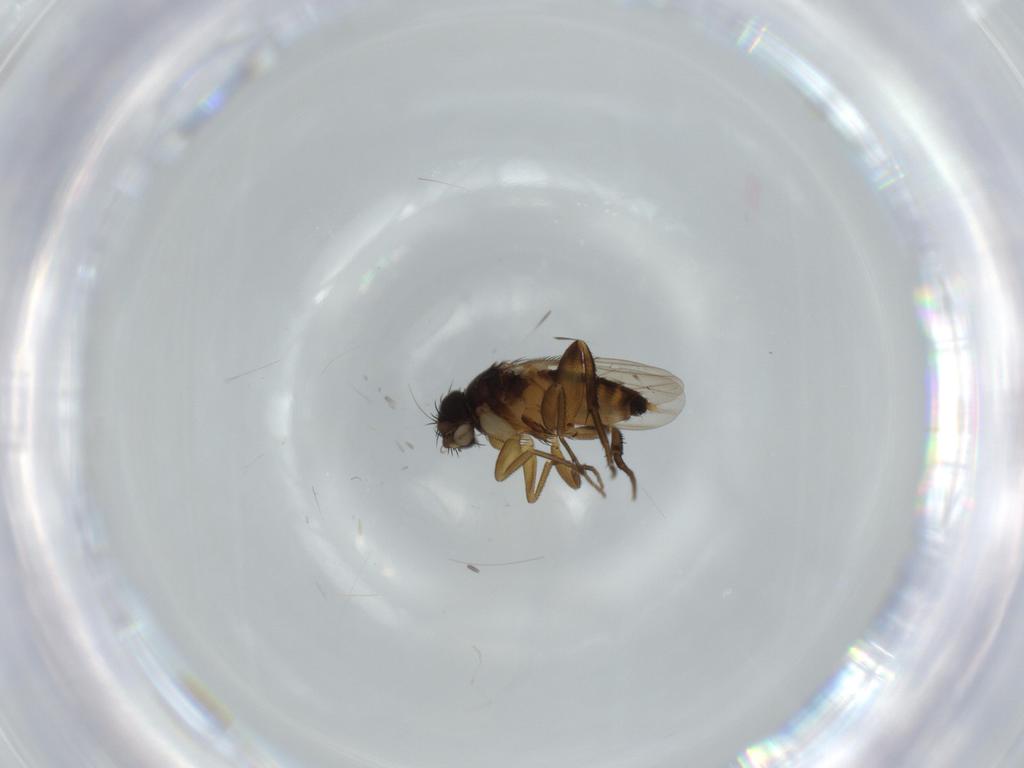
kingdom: Animalia
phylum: Arthropoda
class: Insecta
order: Diptera
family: Phoridae
